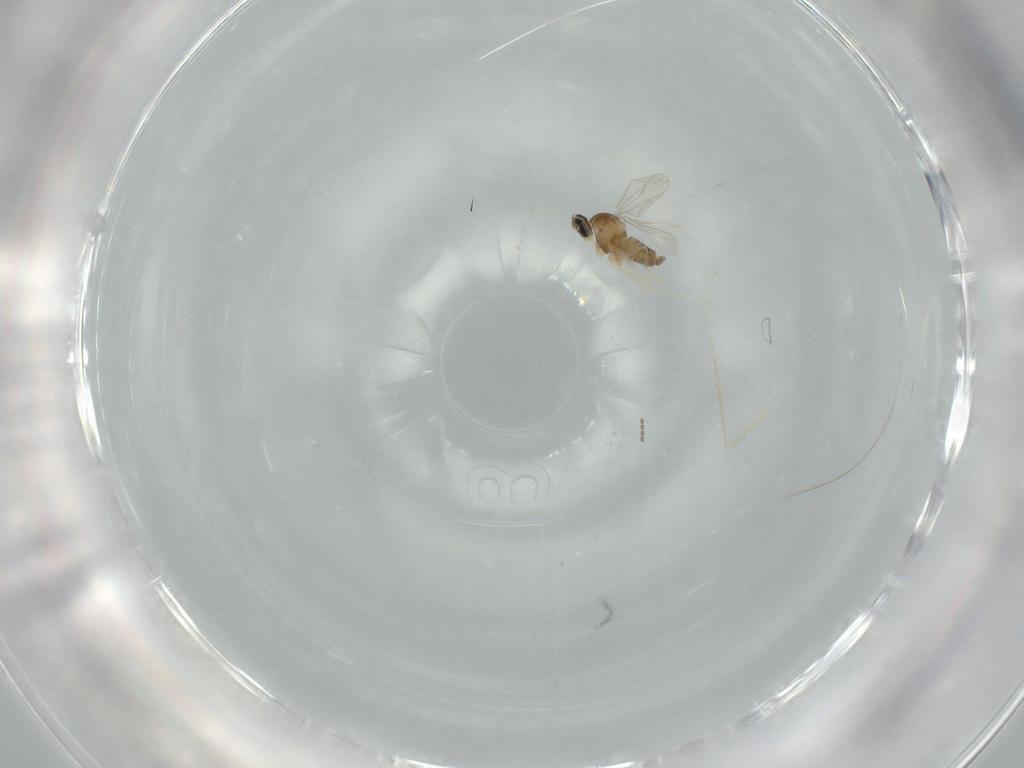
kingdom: Animalia
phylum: Arthropoda
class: Insecta
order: Diptera
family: Cecidomyiidae
